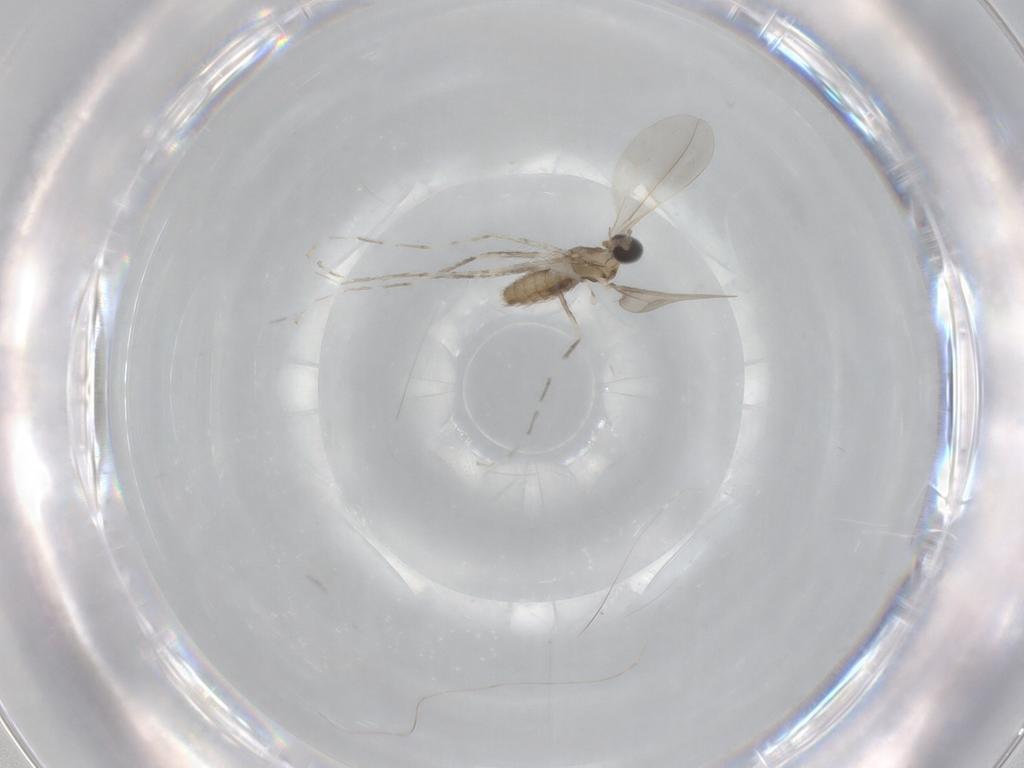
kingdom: Animalia
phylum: Arthropoda
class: Insecta
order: Diptera
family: Cecidomyiidae
